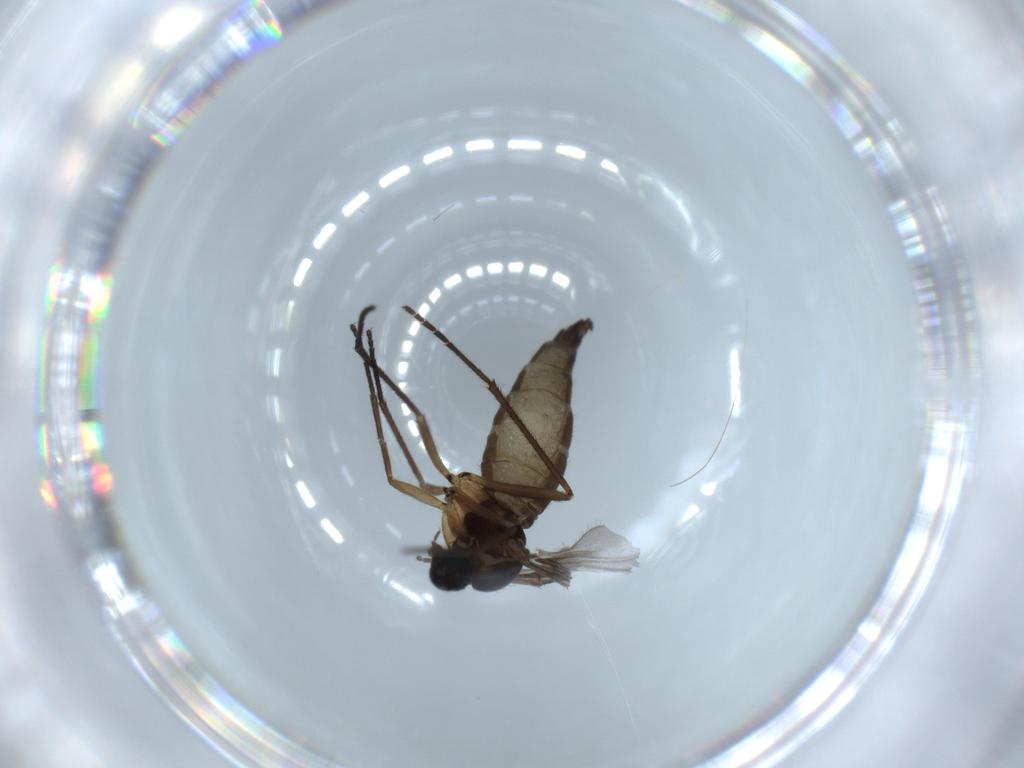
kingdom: Animalia
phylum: Arthropoda
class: Insecta
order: Diptera
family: Sciaridae
